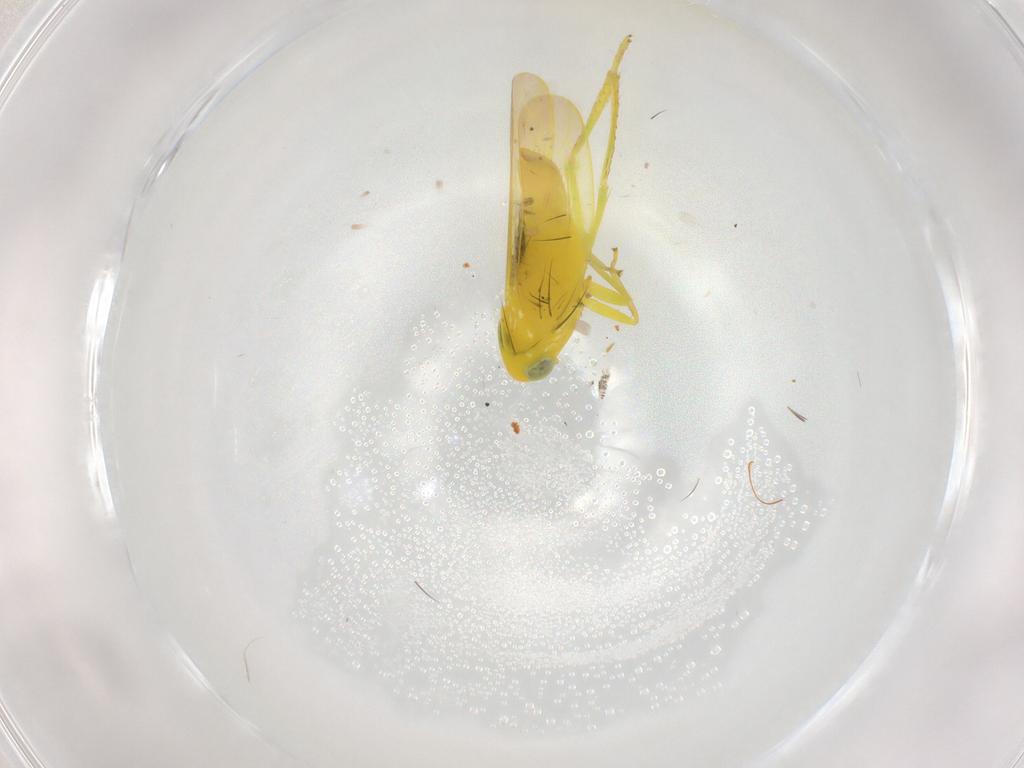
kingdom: Animalia
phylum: Arthropoda
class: Insecta
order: Hemiptera
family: Cicadellidae
